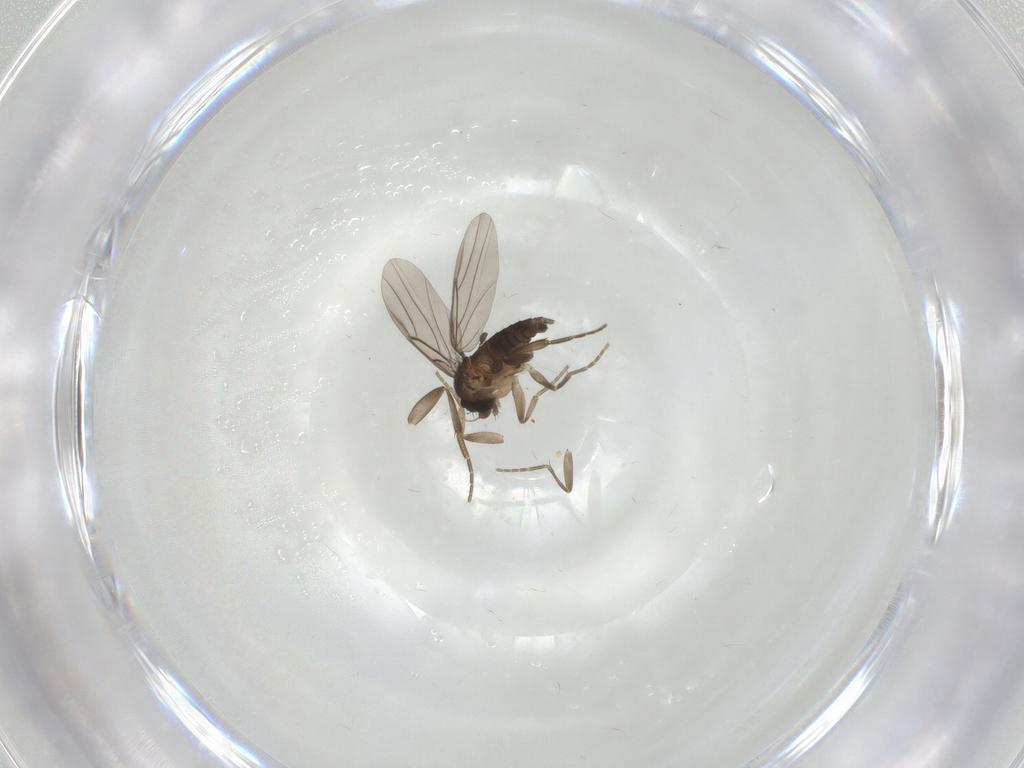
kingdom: Animalia
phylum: Arthropoda
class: Insecta
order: Diptera
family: Phoridae
